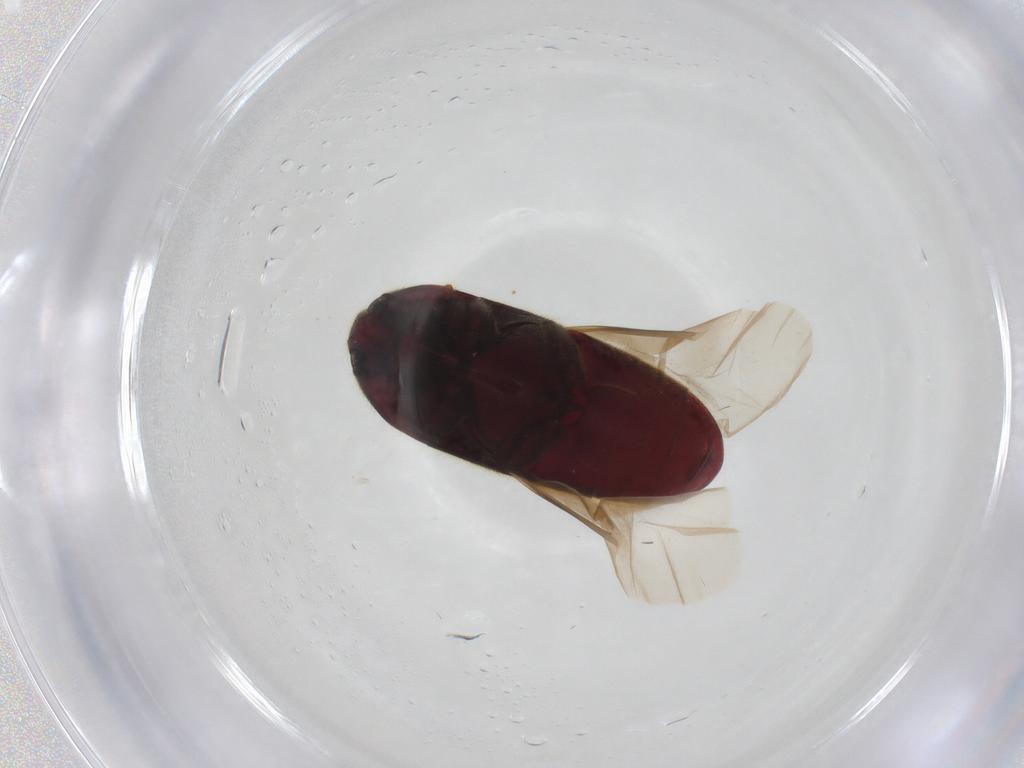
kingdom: Animalia
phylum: Arthropoda
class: Insecta
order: Coleoptera
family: Throscidae
